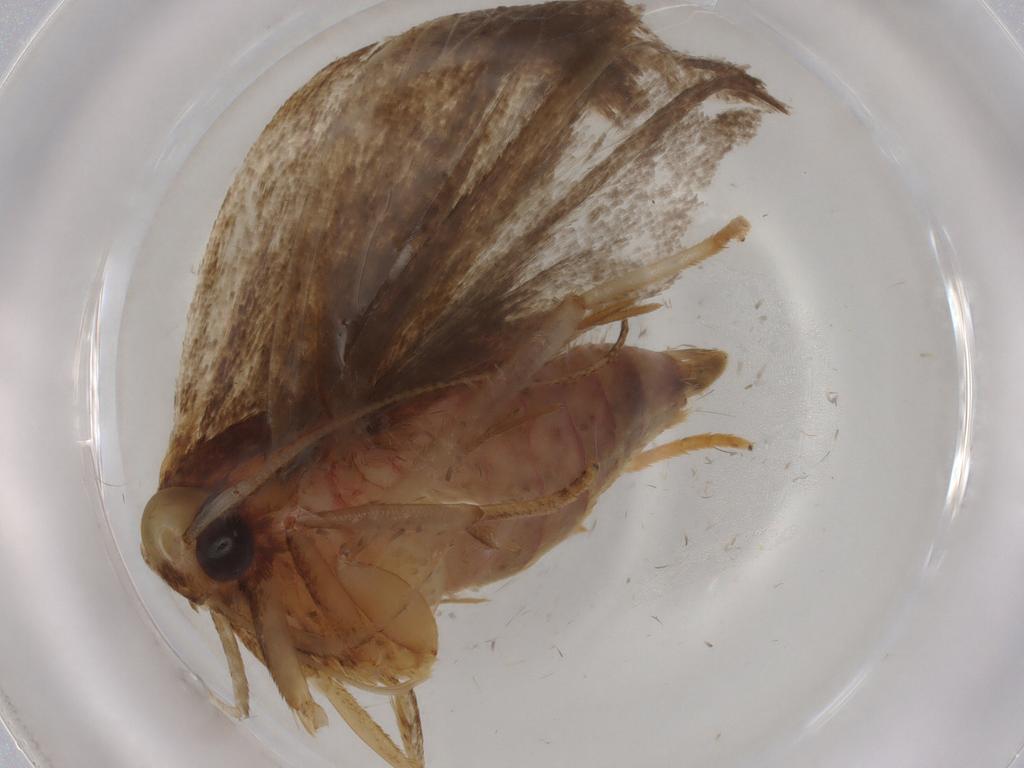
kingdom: Animalia
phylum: Arthropoda
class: Insecta
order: Lepidoptera
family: Autostichidae
